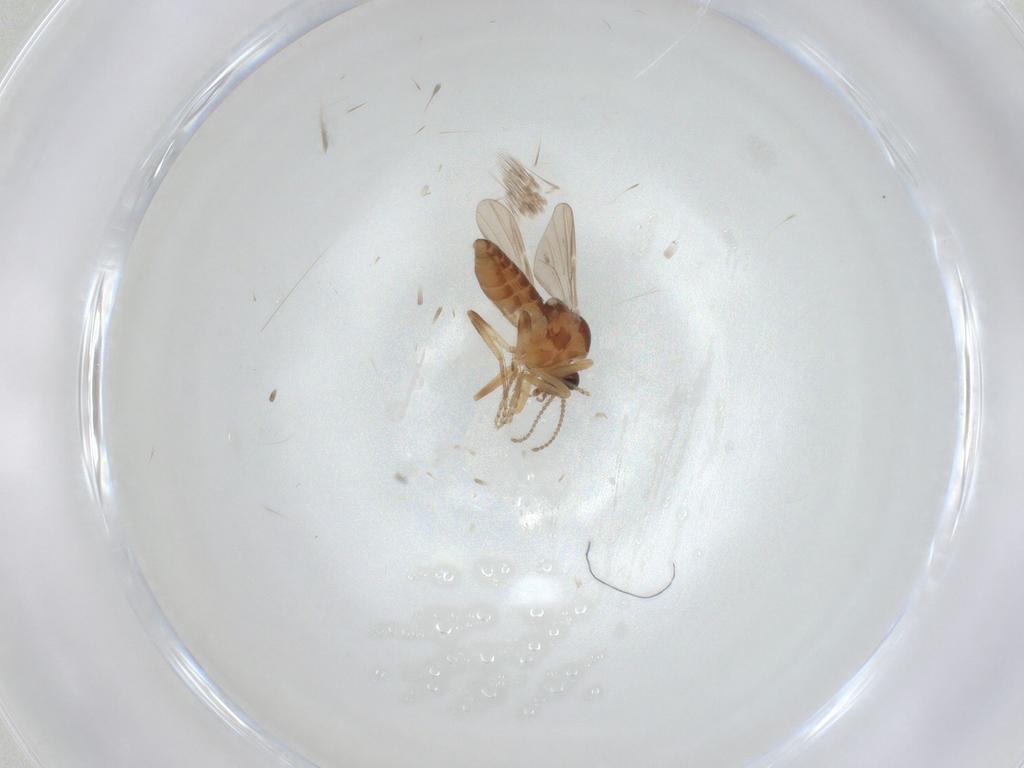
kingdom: Animalia
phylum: Arthropoda
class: Insecta
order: Diptera
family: Ceratopogonidae
